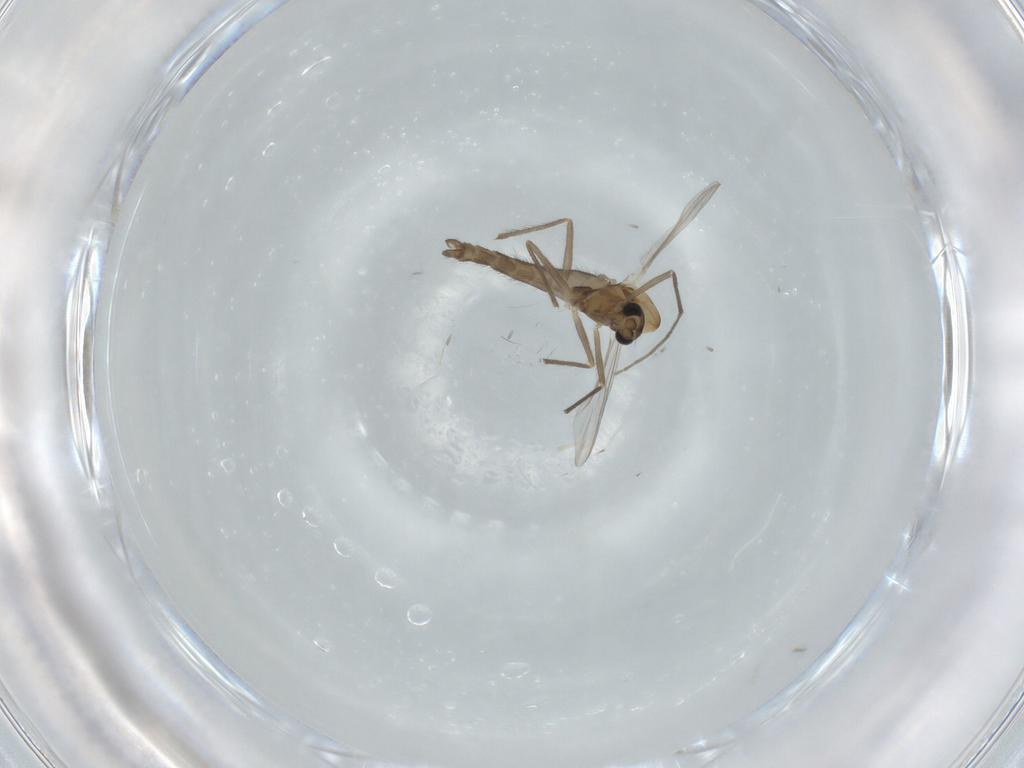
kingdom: Animalia
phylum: Arthropoda
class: Insecta
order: Diptera
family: Chironomidae
